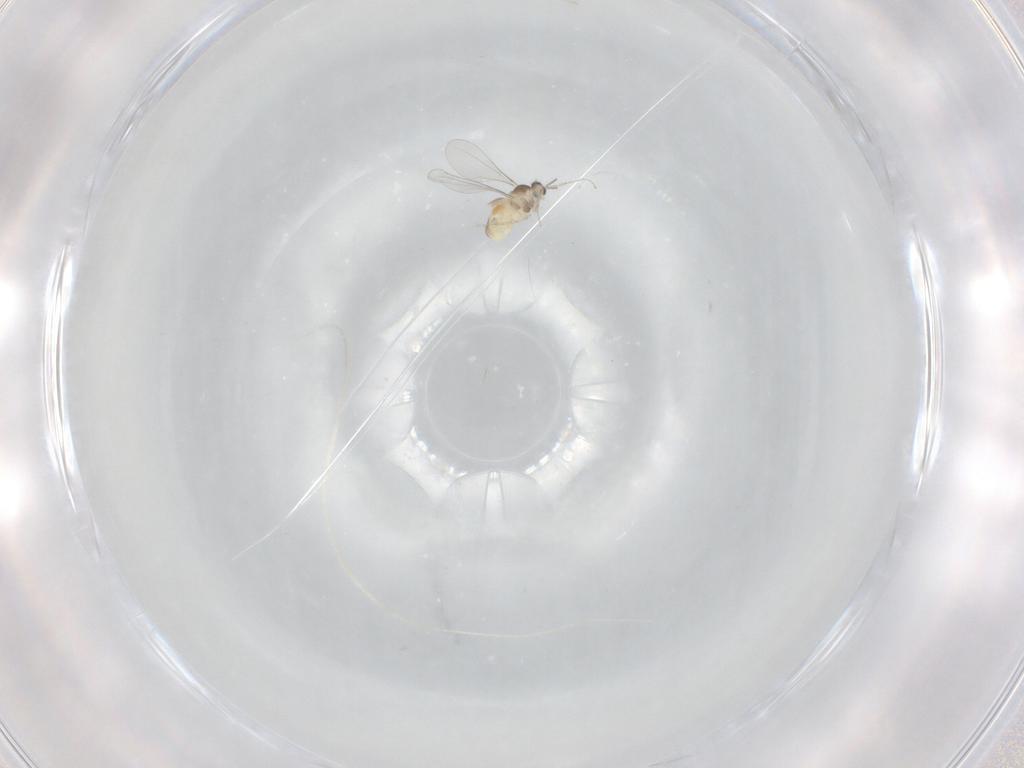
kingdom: Animalia
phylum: Arthropoda
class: Insecta
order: Diptera
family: Cecidomyiidae
